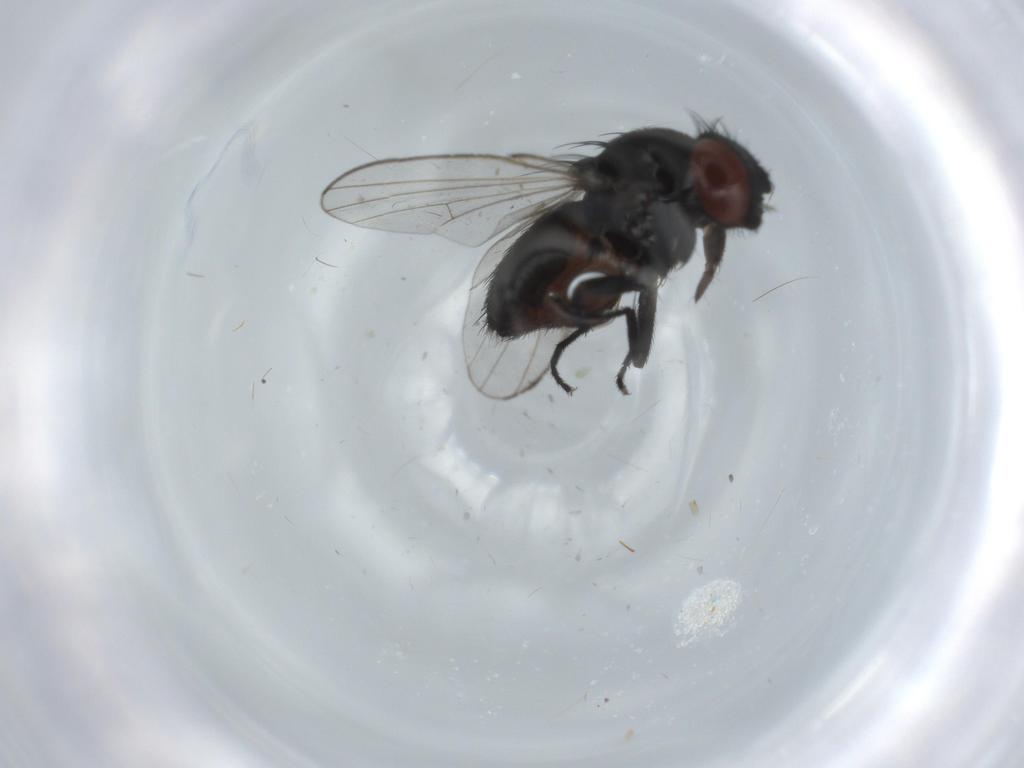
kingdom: Animalia
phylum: Arthropoda
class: Insecta
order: Diptera
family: Milichiidae
